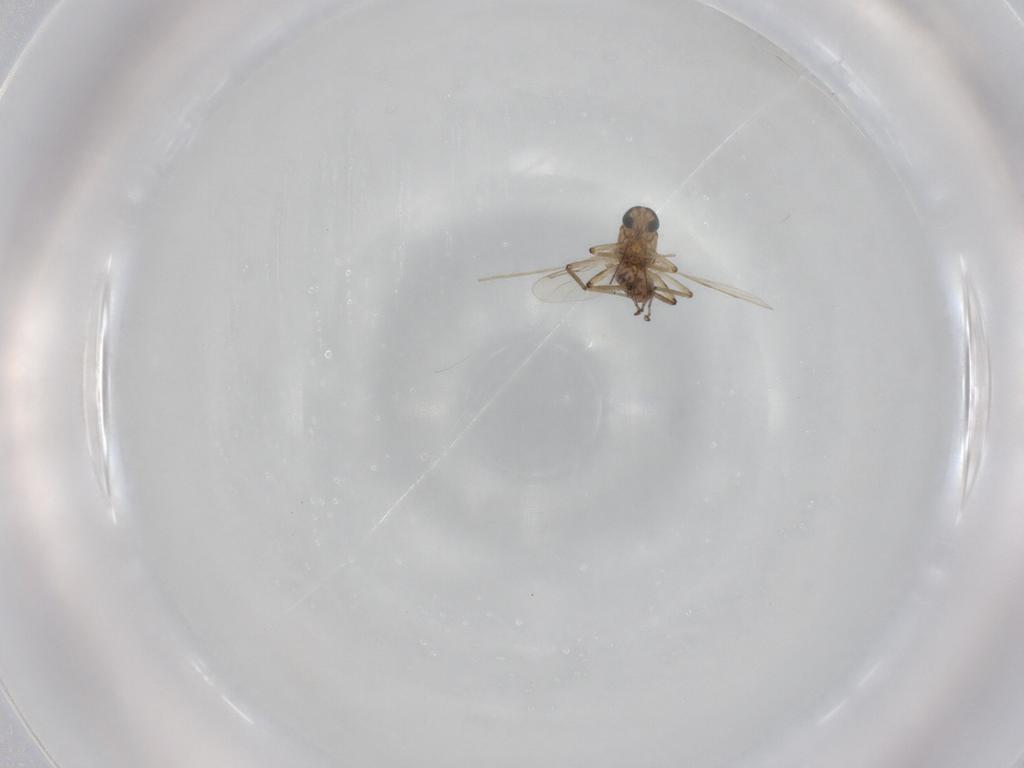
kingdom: Animalia
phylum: Arthropoda
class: Insecta
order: Diptera
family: Ceratopogonidae
